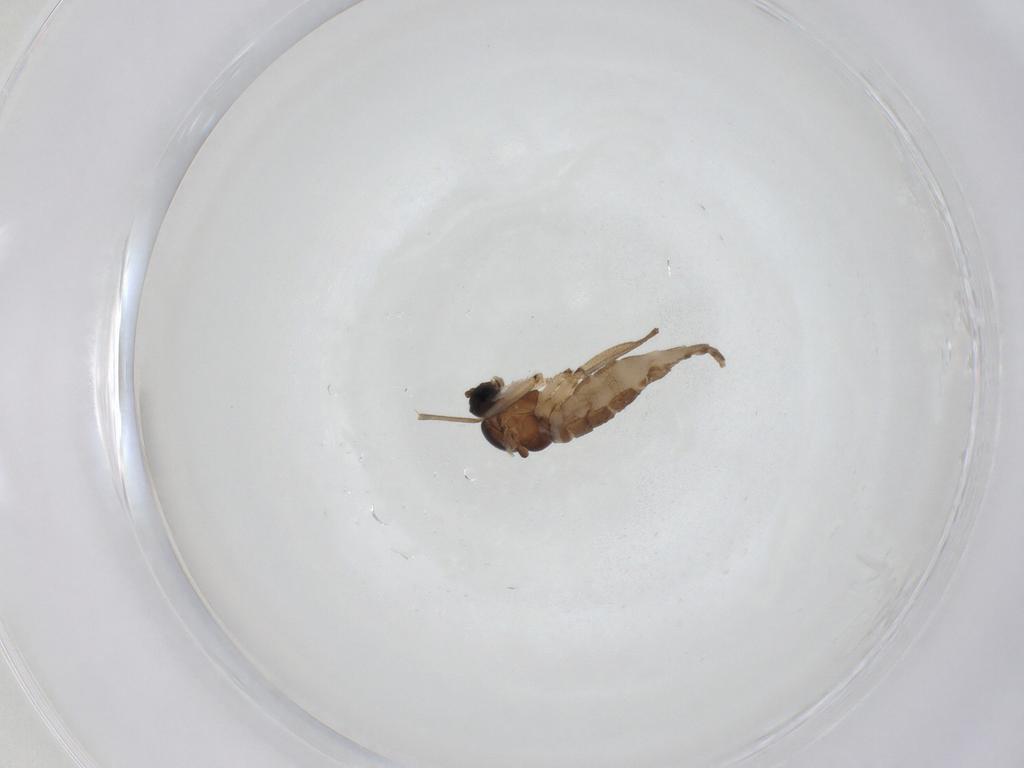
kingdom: Animalia
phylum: Arthropoda
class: Insecta
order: Diptera
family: Sciaridae
